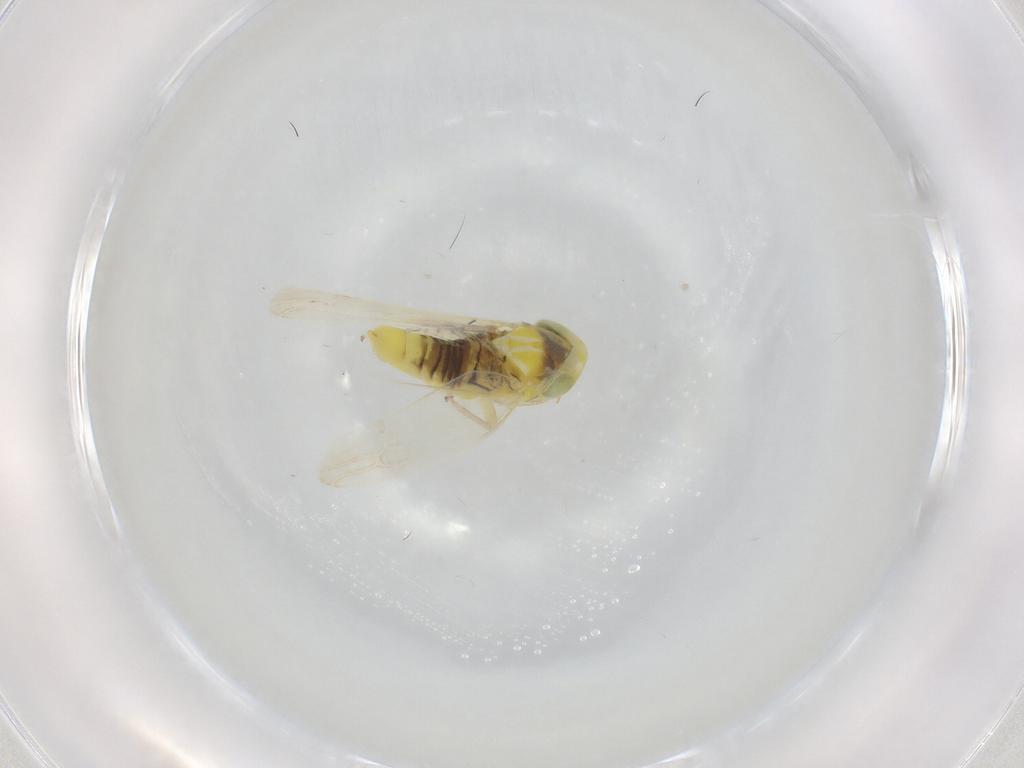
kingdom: Animalia
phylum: Arthropoda
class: Insecta
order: Hemiptera
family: Cicadellidae
